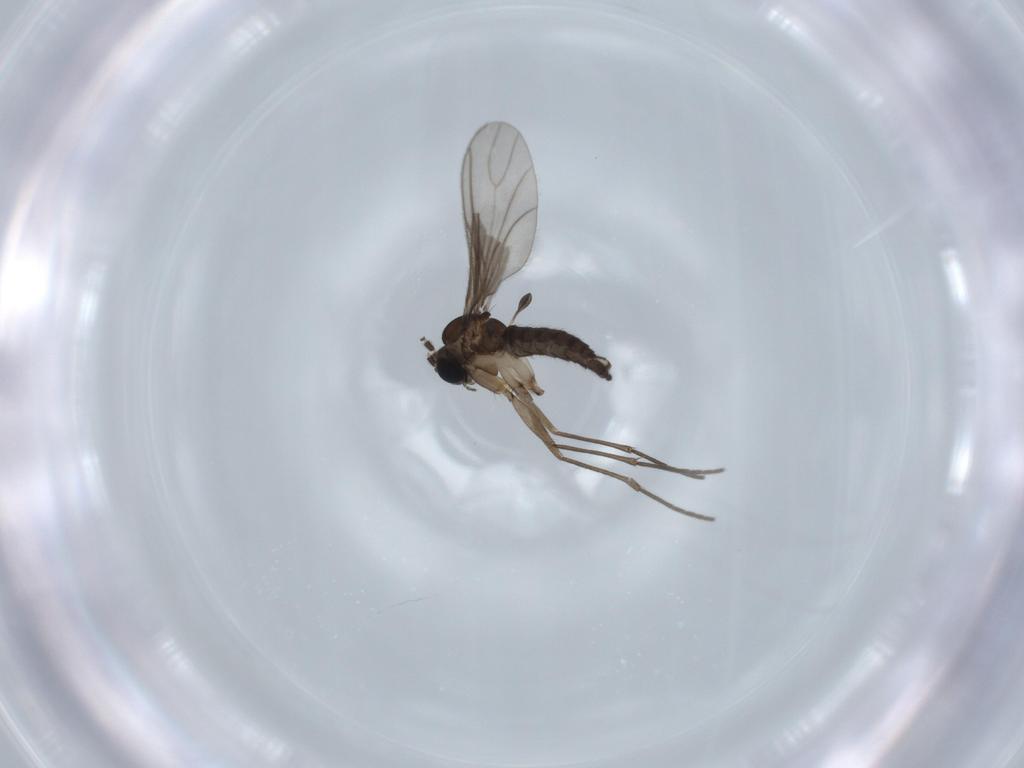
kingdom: Animalia
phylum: Arthropoda
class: Insecta
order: Diptera
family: Sciaridae
